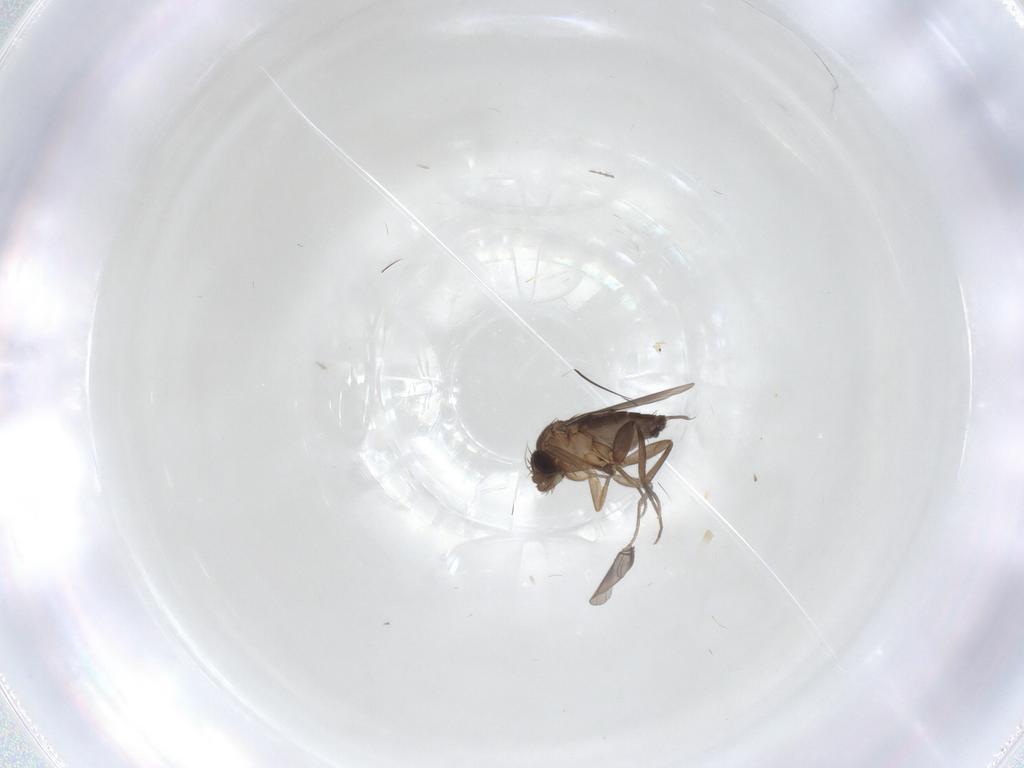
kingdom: Animalia
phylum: Arthropoda
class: Insecta
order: Diptera
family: Phoridae
